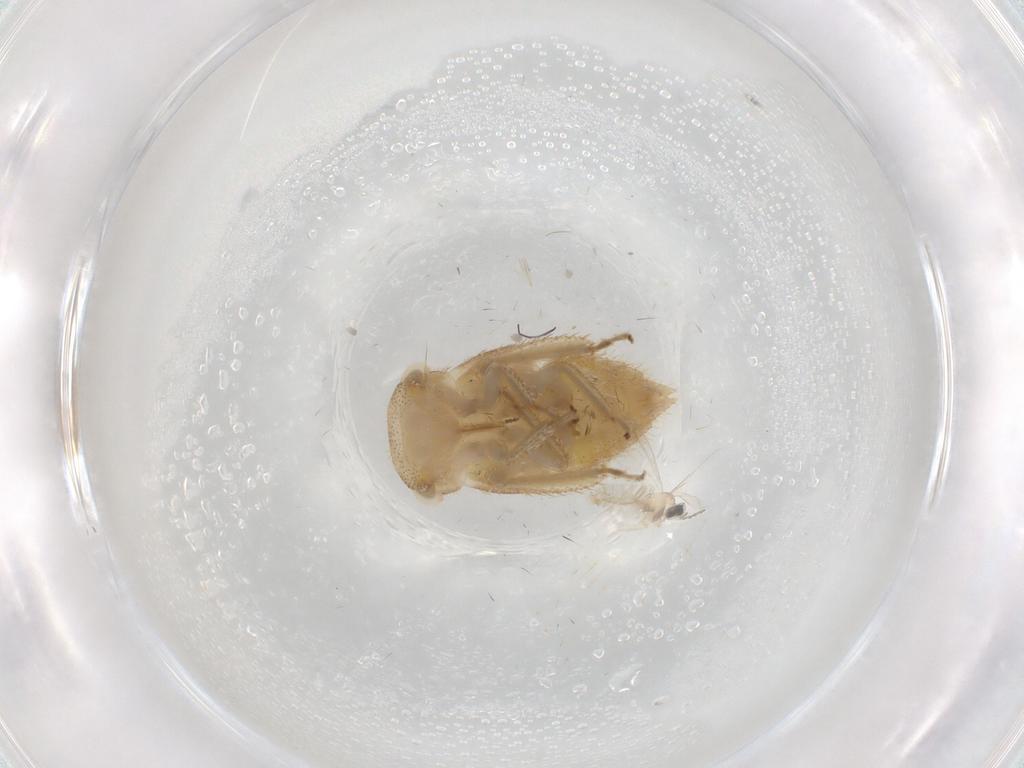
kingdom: Animalia
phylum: Arthropoda
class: Insecta
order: Hemiptera
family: Cicadellidae
